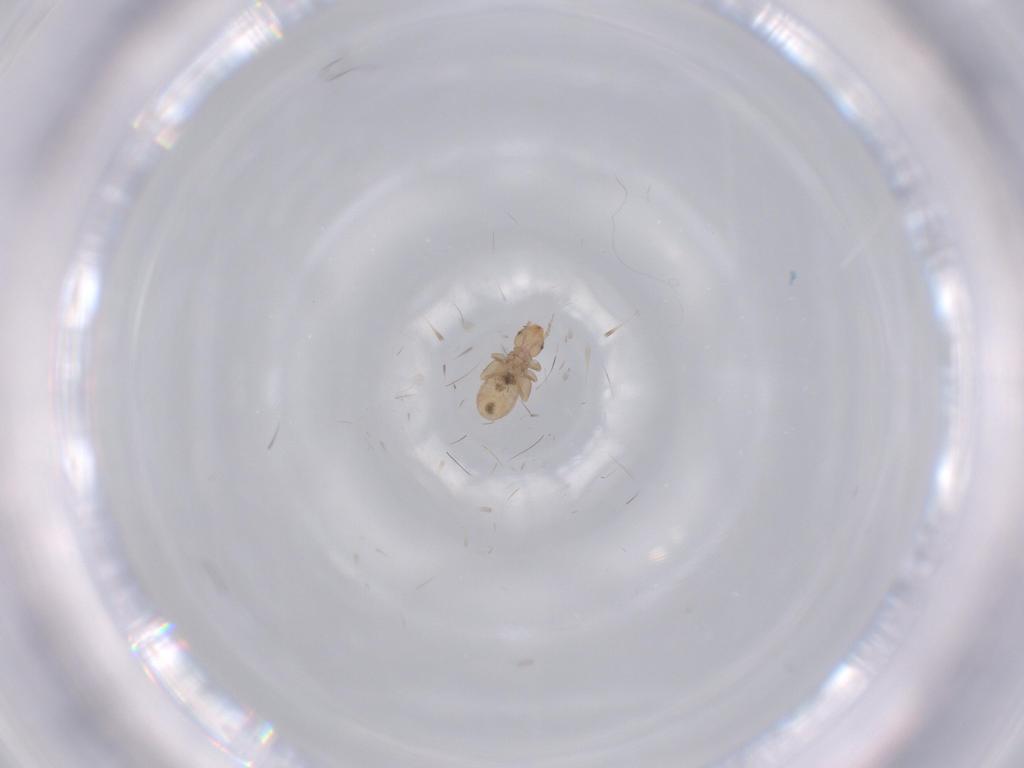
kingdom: Animalia
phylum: Arthropoda
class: Insecta
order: Psocodea
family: Liposcelididae
